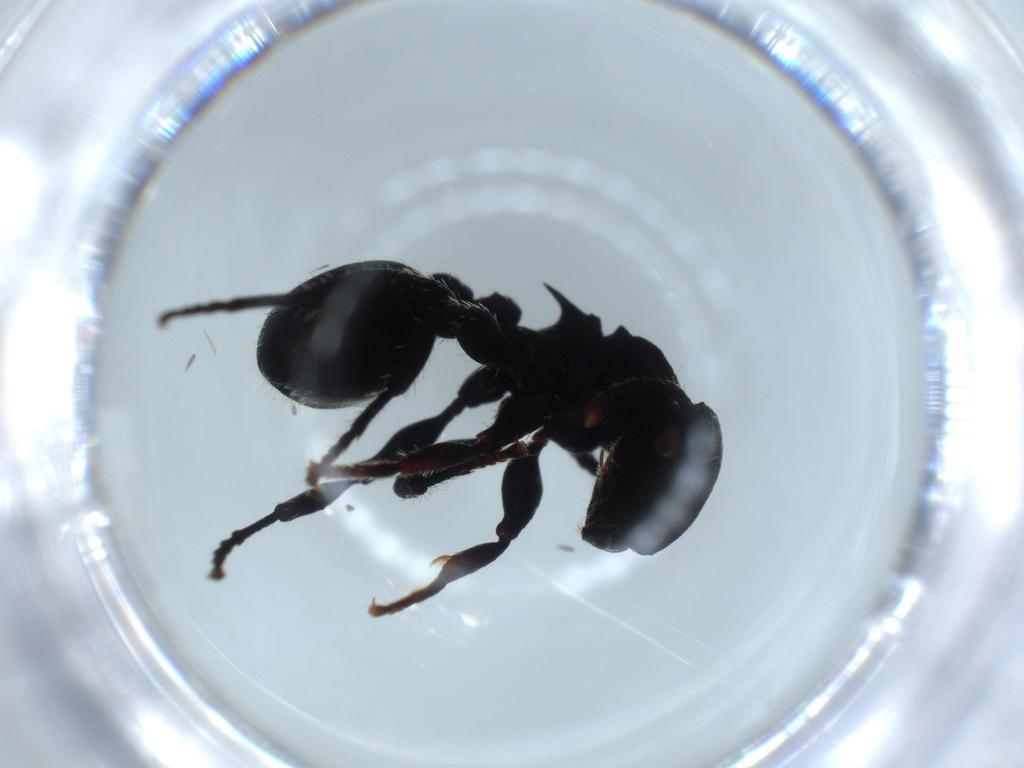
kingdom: Animalia
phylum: Arthropoda
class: Insecta
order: Hymenoptera
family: Formicidae
